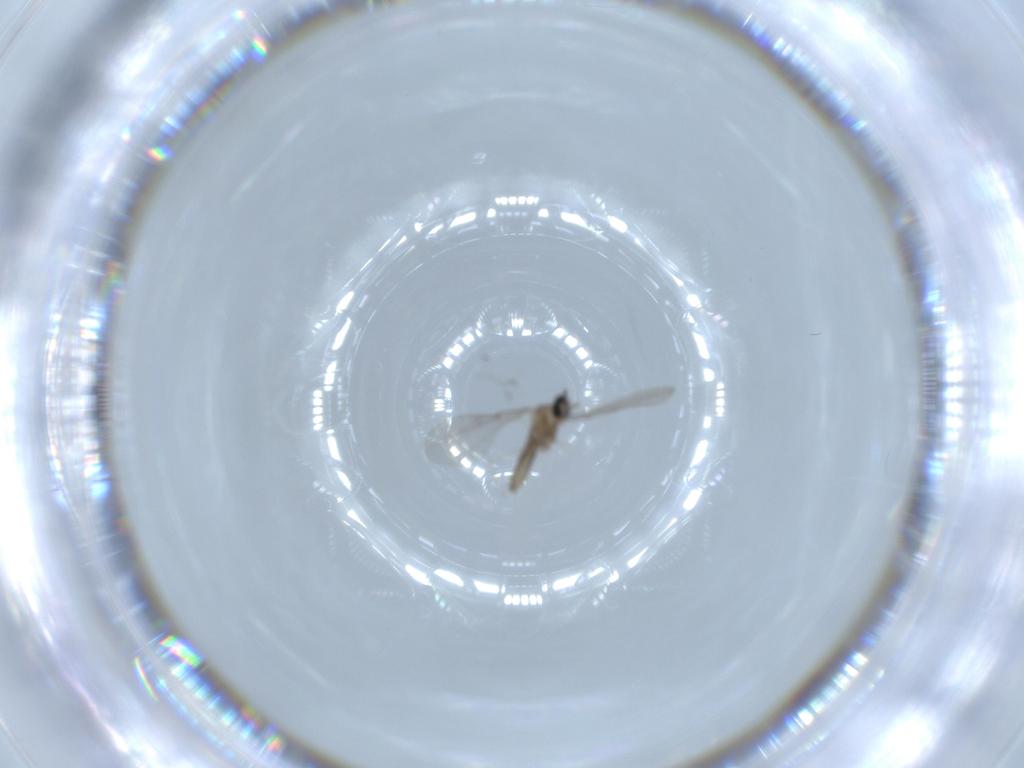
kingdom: Animalia
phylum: Arthropoda
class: Insecta
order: Diptera
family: Cecidomyiidae
